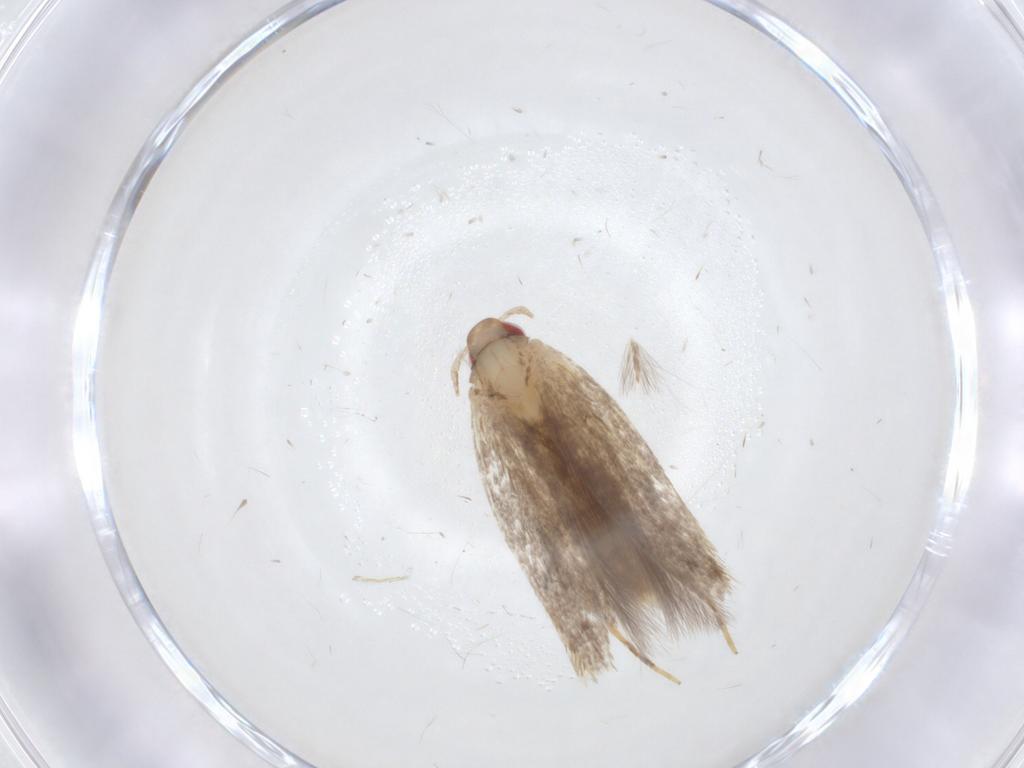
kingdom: Animalia
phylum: Arthropoda
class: Insecta
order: Lepidoptera
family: Cosmopterigidae
